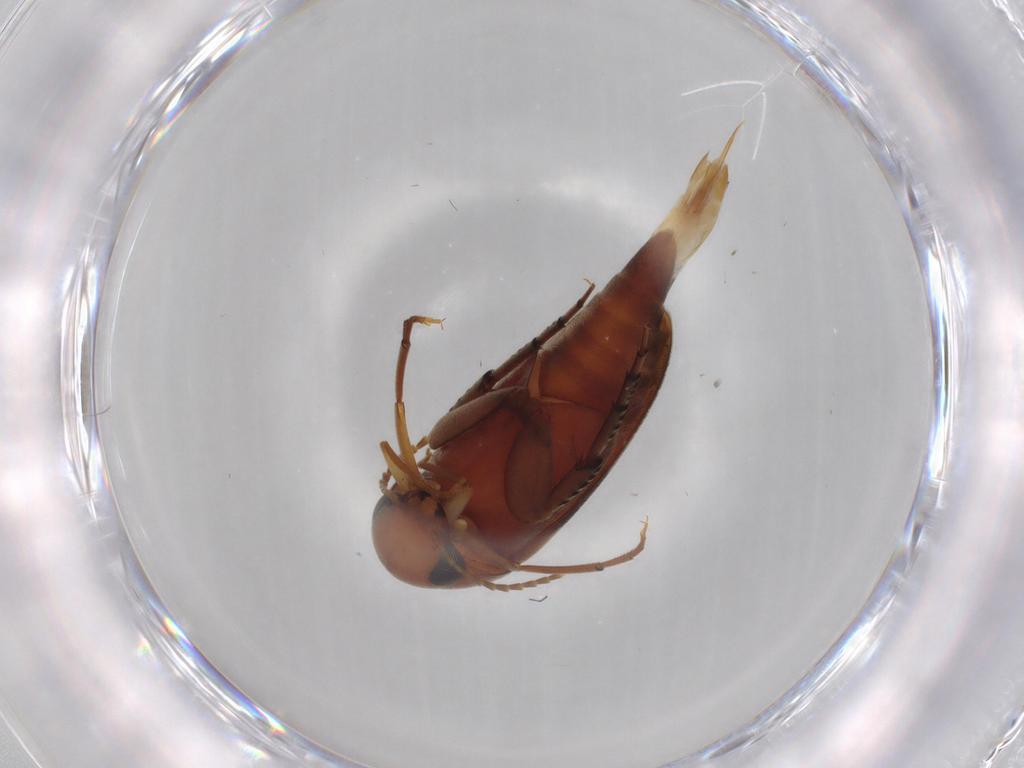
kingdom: Animalia
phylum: Arthropoda
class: Insecta
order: Coleoptera
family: Mordellidae
